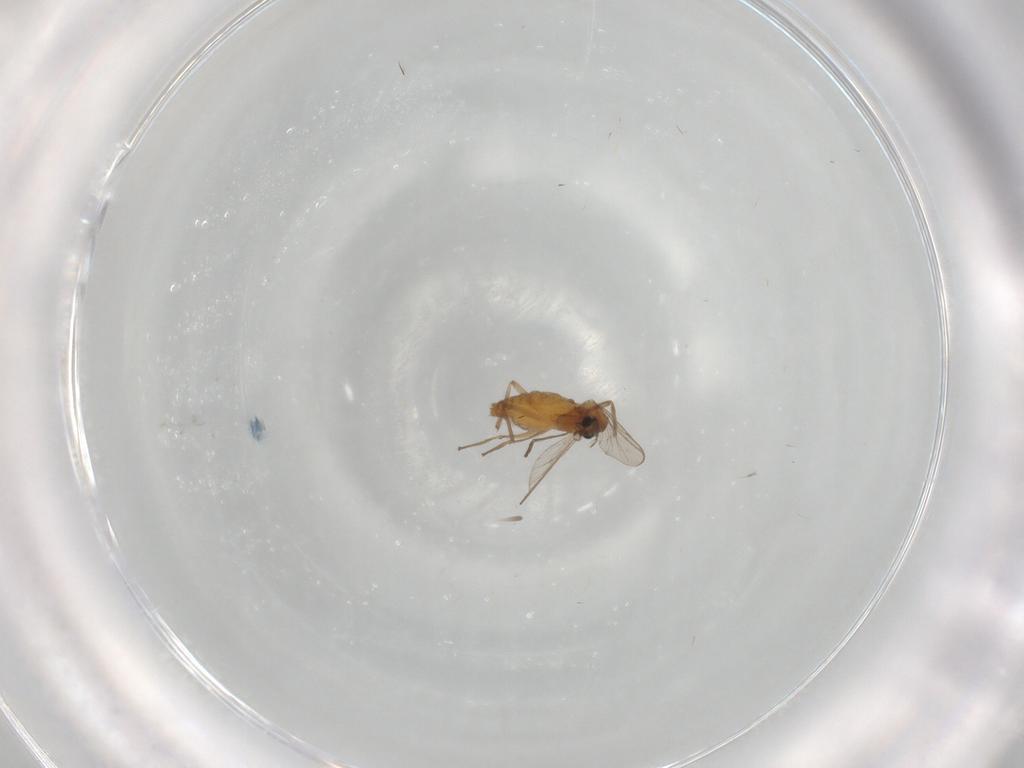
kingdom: Animalia
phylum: Arthropoda
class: Insecta
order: Diptera
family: Chironomidae
